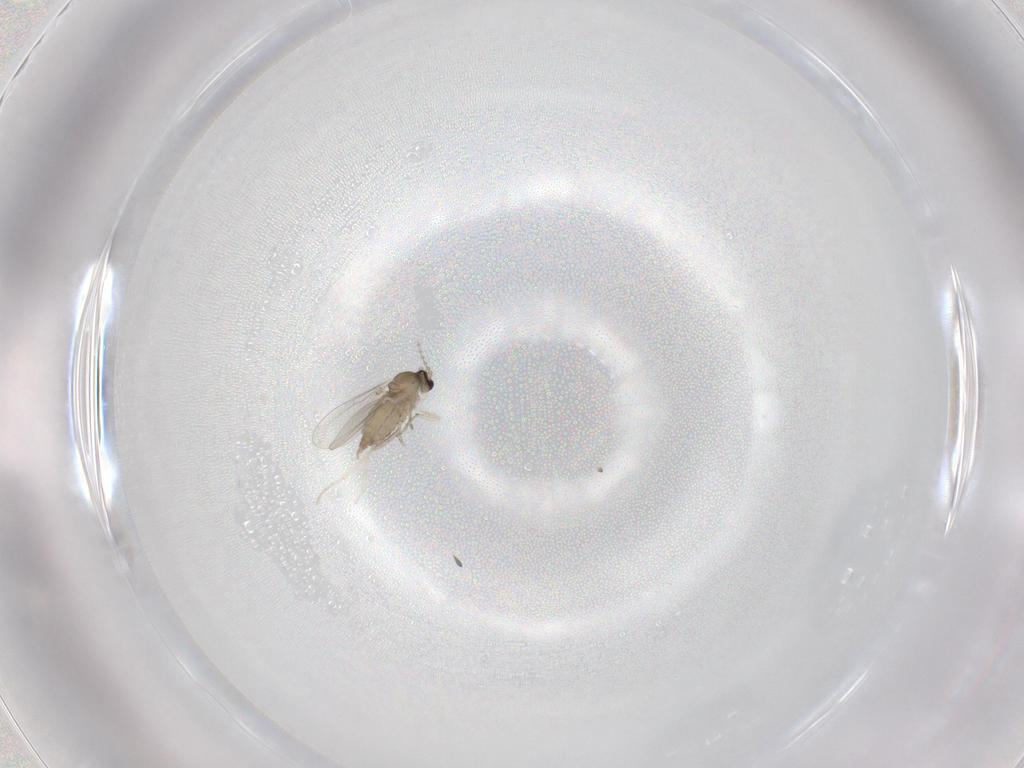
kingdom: Animalia
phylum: Arthropoda
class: Insecta
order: Diptera
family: Cecidomyiidae
